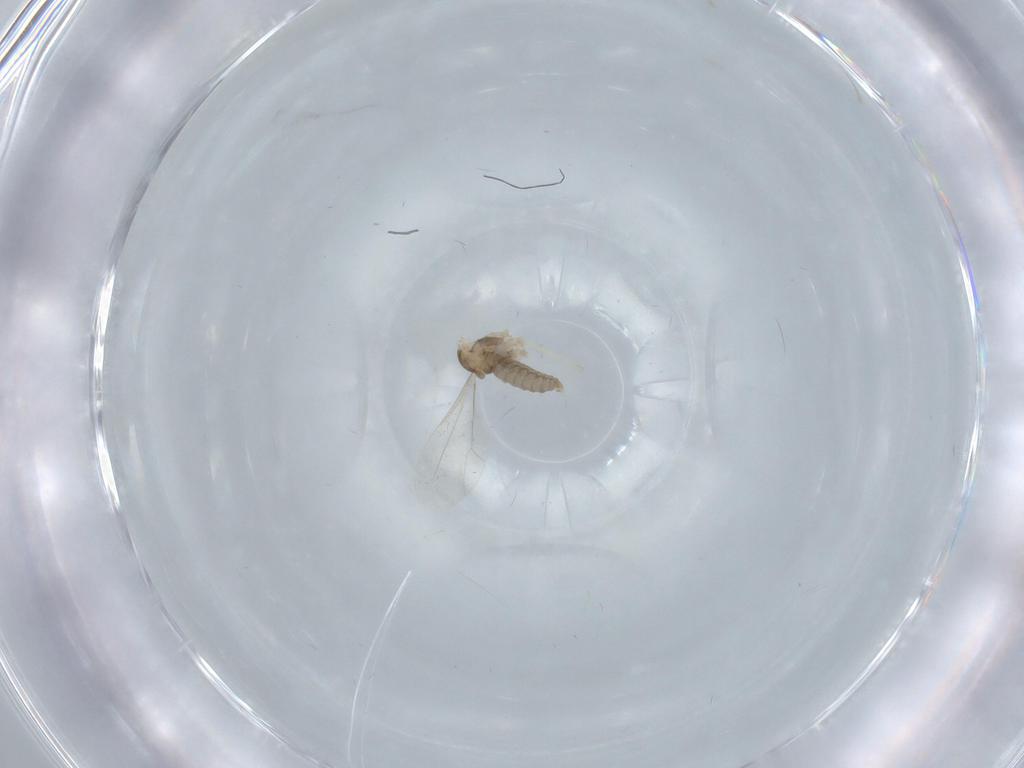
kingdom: Animalia
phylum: Arthropoda
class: Insecta
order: Diptera
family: Cecidomyiidae
